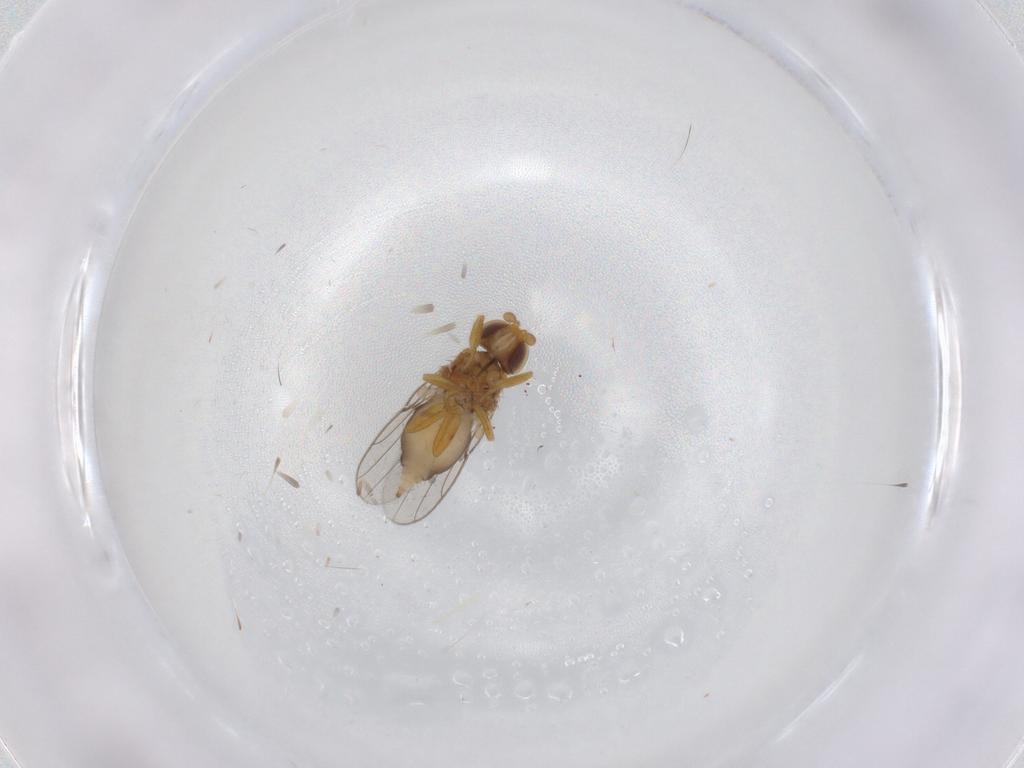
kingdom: Animalia
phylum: Arthropoda
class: Insecta
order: Diptera
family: Chloropidae
